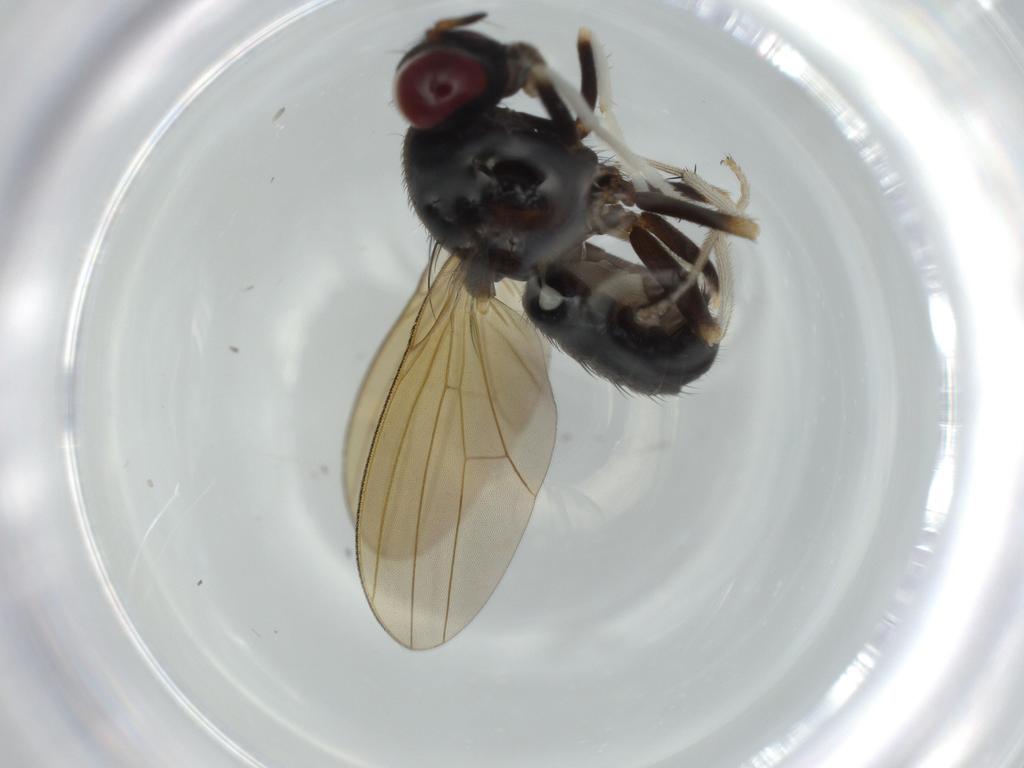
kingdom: Animalia
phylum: Arthropoda
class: Insecta
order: Diptera
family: Lauxaniidae
